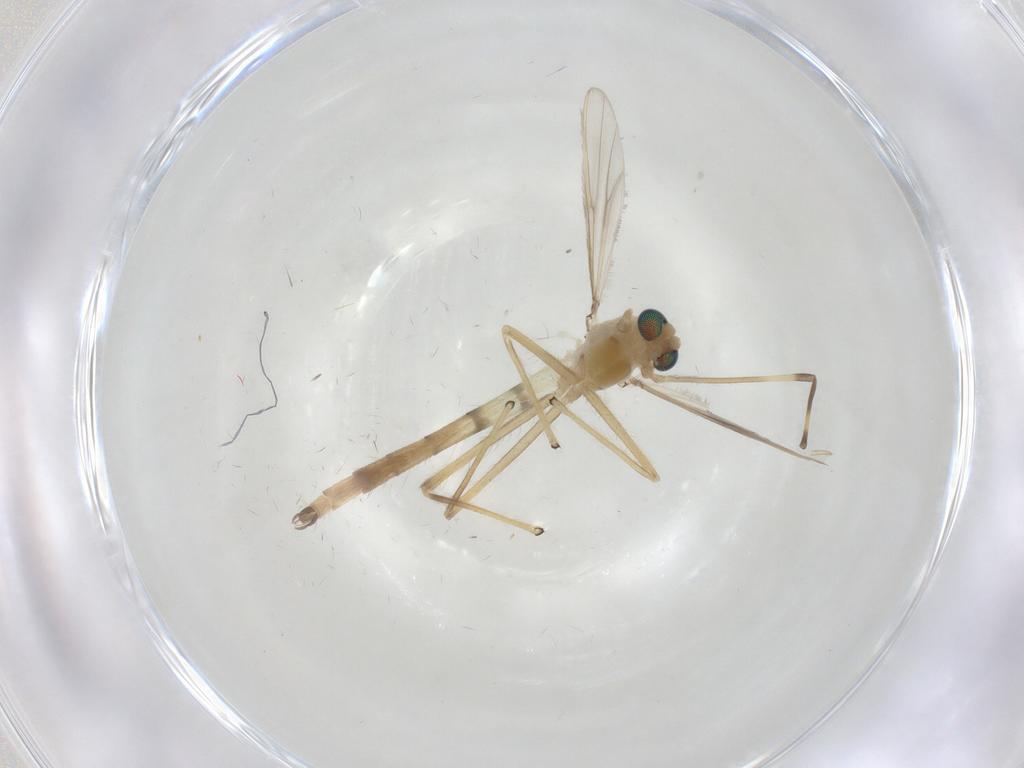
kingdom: Animalia
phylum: Arthropoda
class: Insecta
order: Diptera
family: Chironomidae
